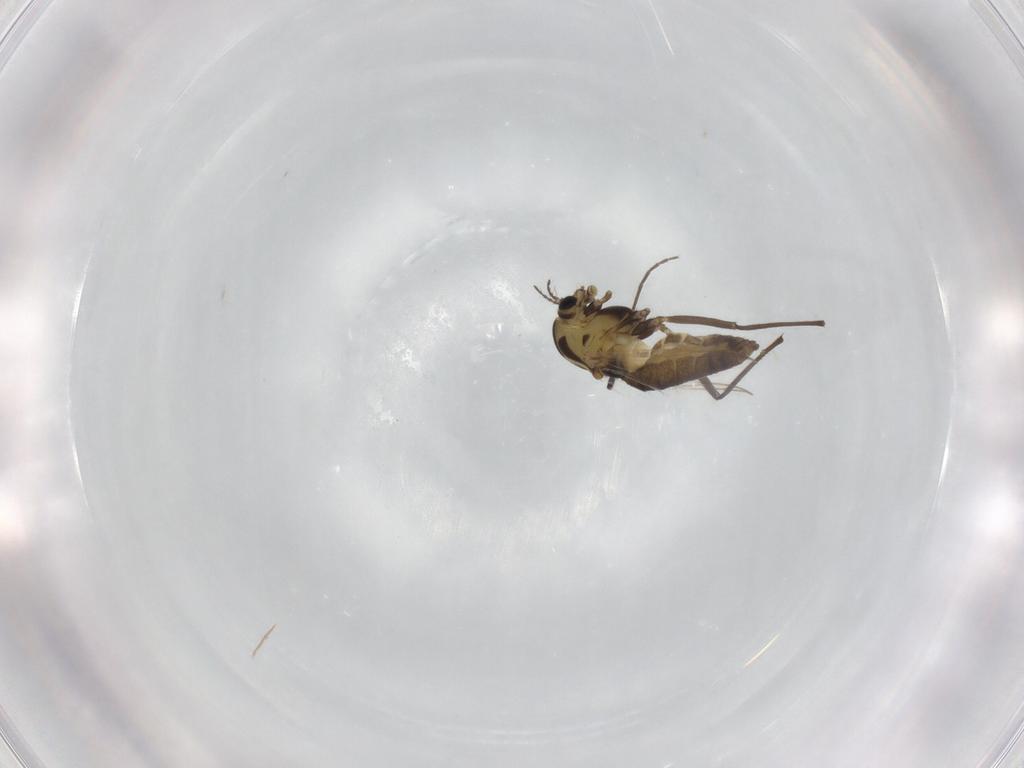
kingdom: Animalia
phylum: Arthropoda
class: Insecta
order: Diptera
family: Chironomidae
